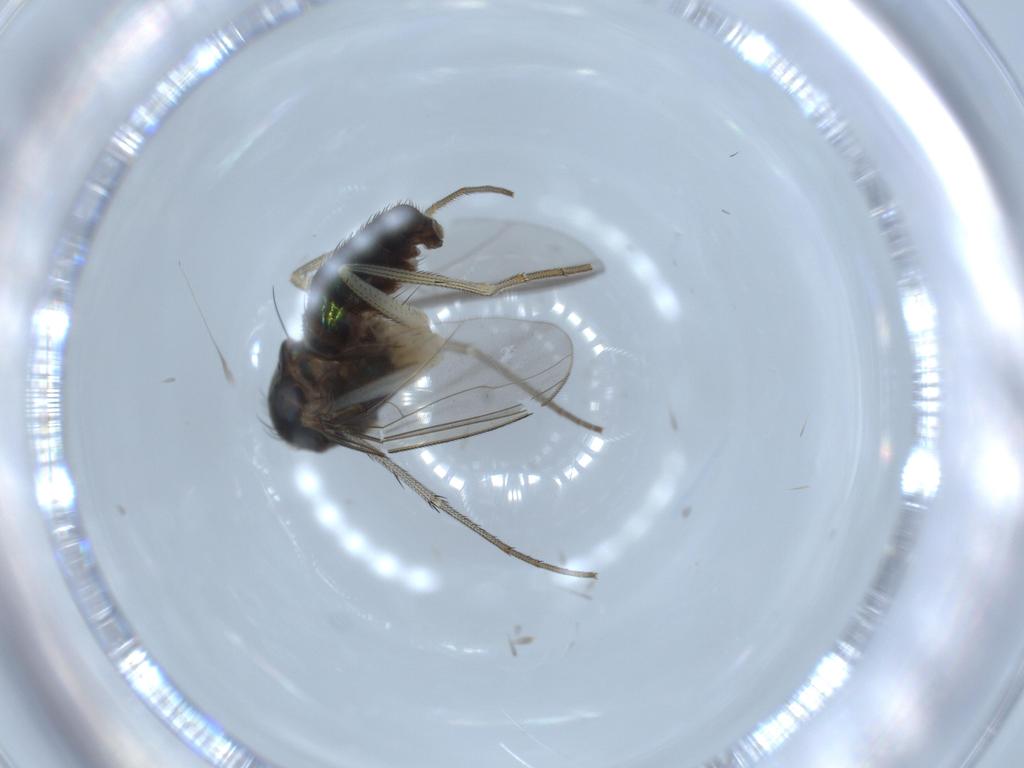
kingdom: Animalia
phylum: Arthropoda
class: Insecta
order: Diptera
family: Dolichopodidae
